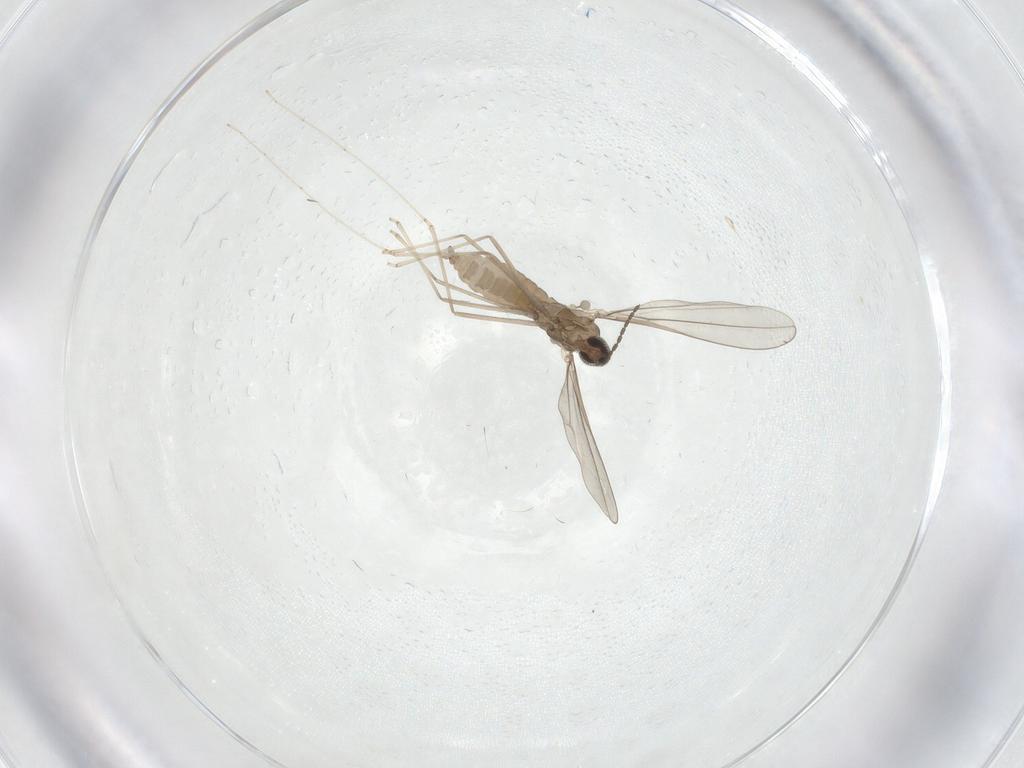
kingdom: Animalia
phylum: Arthropoda
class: Insecta
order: Diptera
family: Cecidomyiidae
